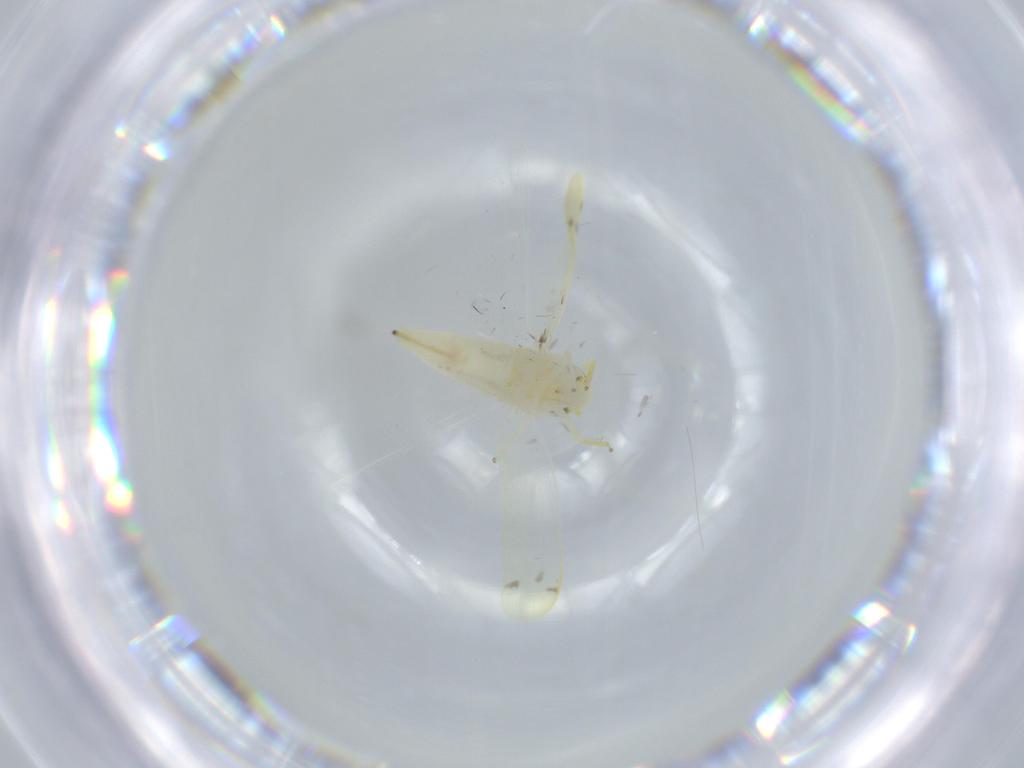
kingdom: Animalia
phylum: Arthropoda
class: Insecta
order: Hemiptera
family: Cicadellidae
